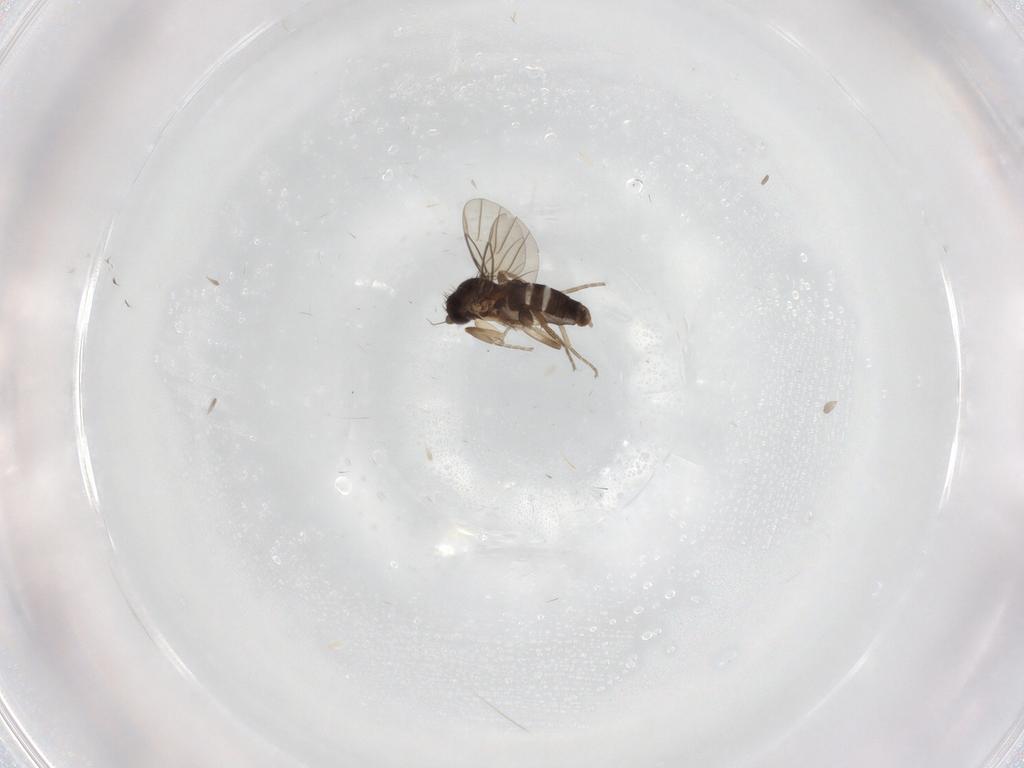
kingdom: Animalia
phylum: Arthropoda
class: Insecta
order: Diptera
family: Phoridae
